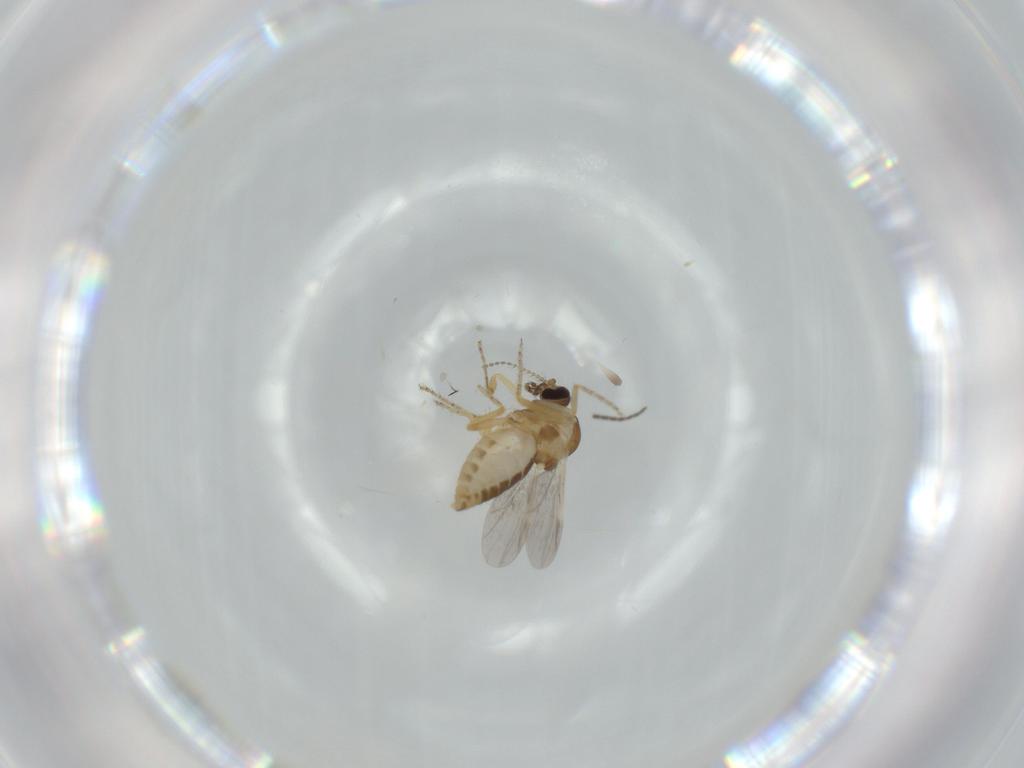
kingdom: Animalia
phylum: Arthropoda
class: Insecta
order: Diptera
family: Ceratopogonidae
